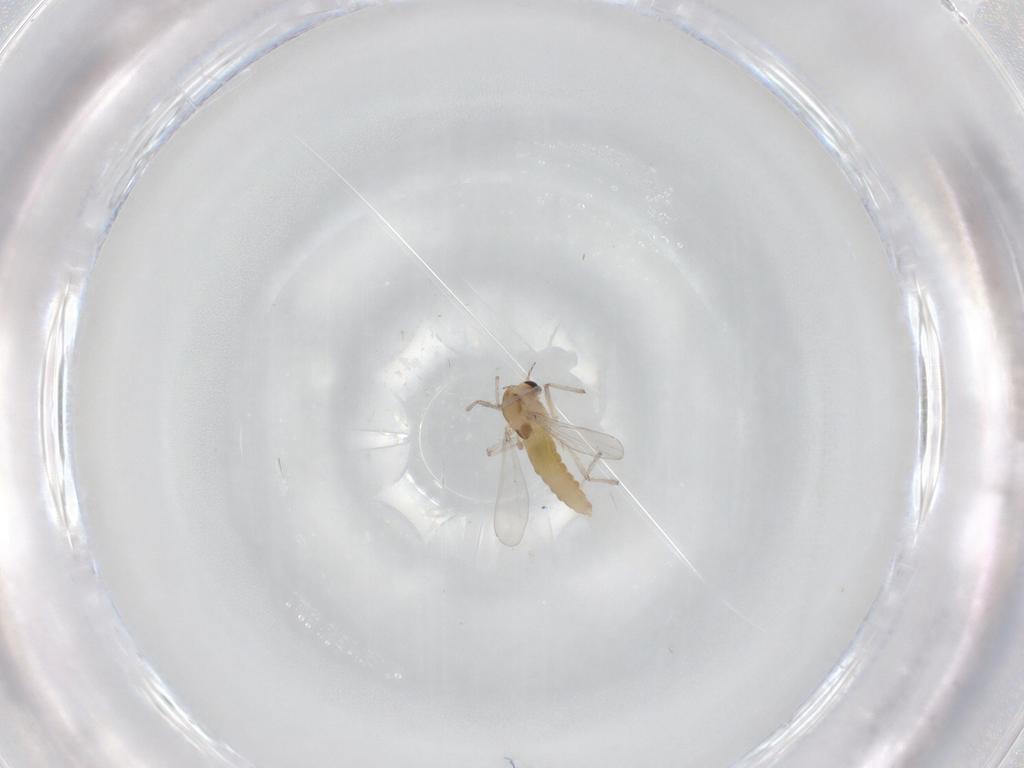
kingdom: Animalia
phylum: Arthropoda
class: Insecta
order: Diptera
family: Chironomidae
